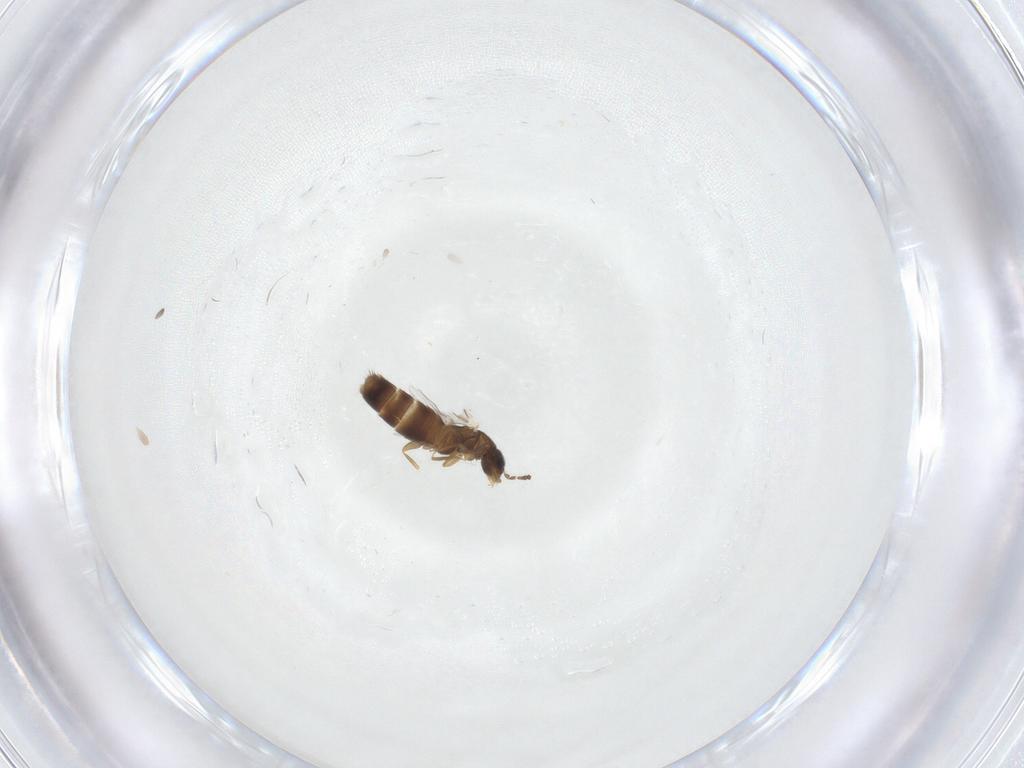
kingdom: Animalia
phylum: Arthropoda
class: Insecta
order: Coleoptera
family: Staphylinidae
